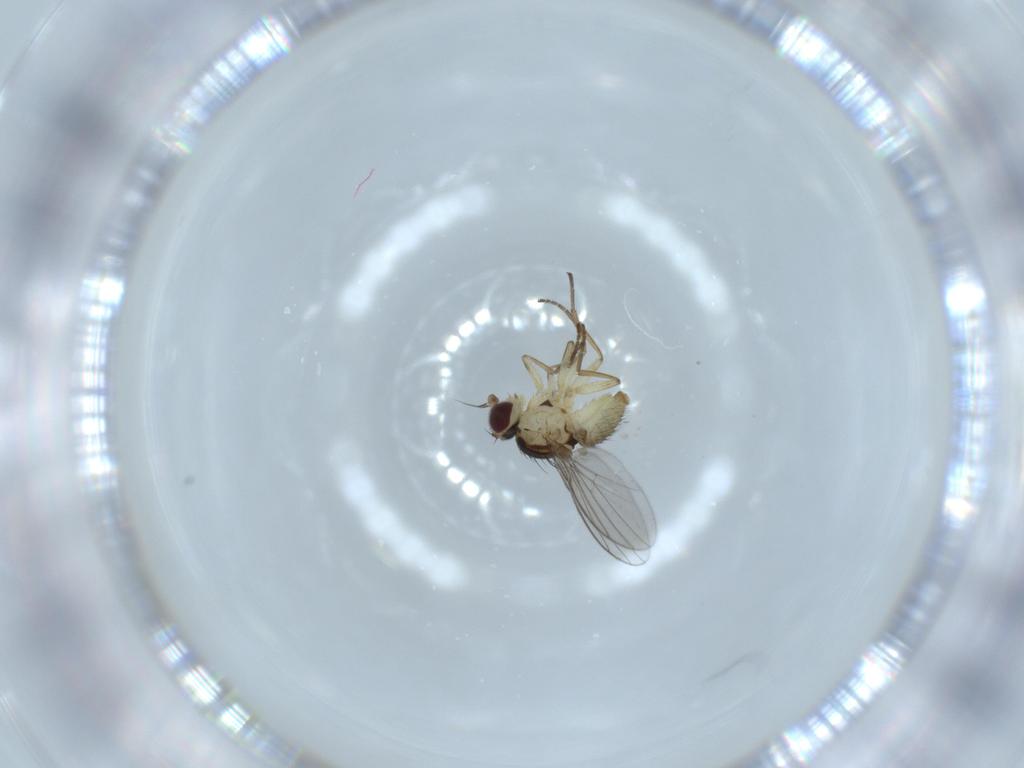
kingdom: Animalia
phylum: Arthropoda
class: Insecta
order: Diptera
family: Agromyzidae
